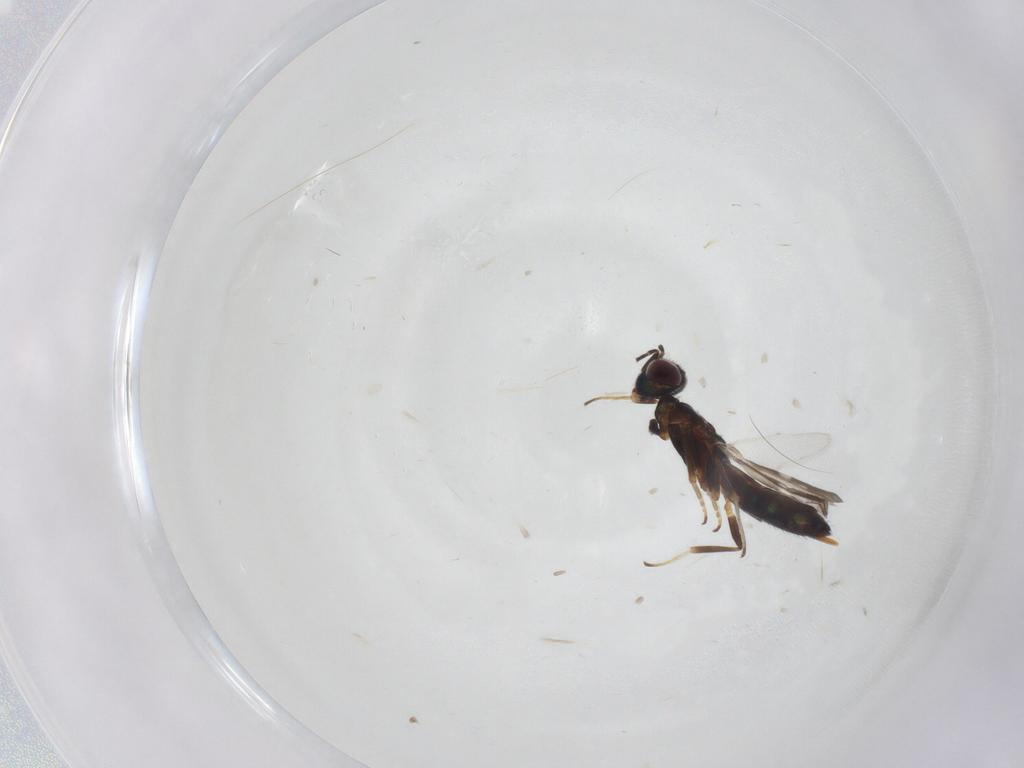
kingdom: Animalia
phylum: Arthropoda
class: Insecta
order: Hymenoptera
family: Eupelmidae
